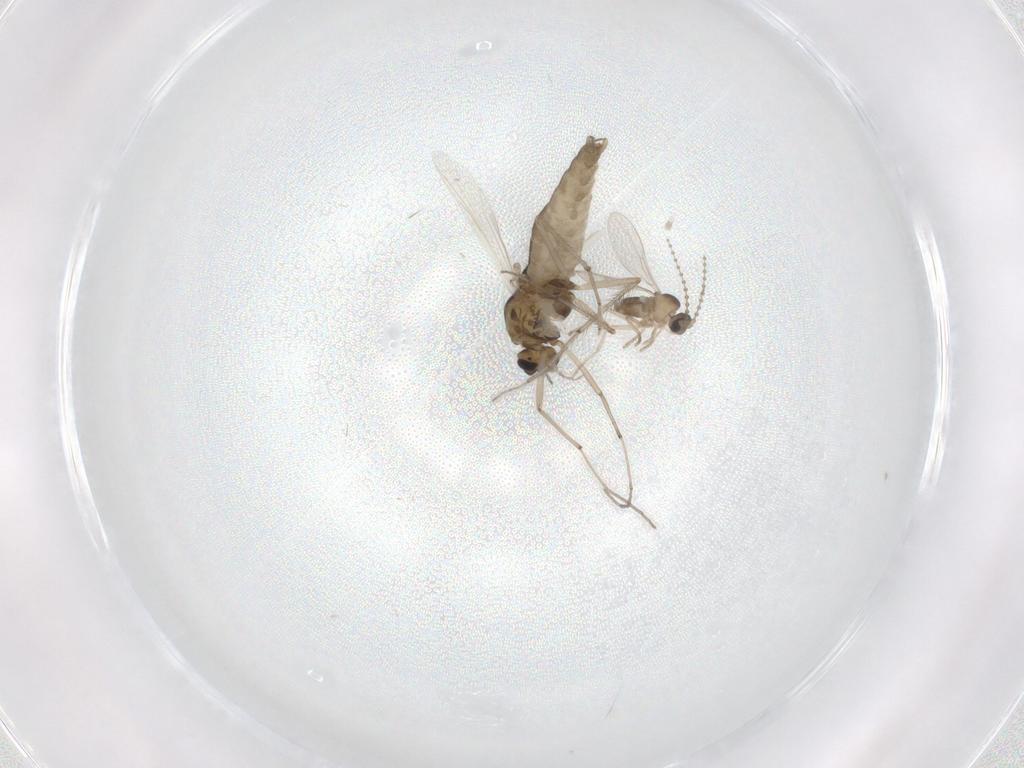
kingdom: Animalia
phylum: Arthropoda
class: Insecta
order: Diptera
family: Chironomidae
